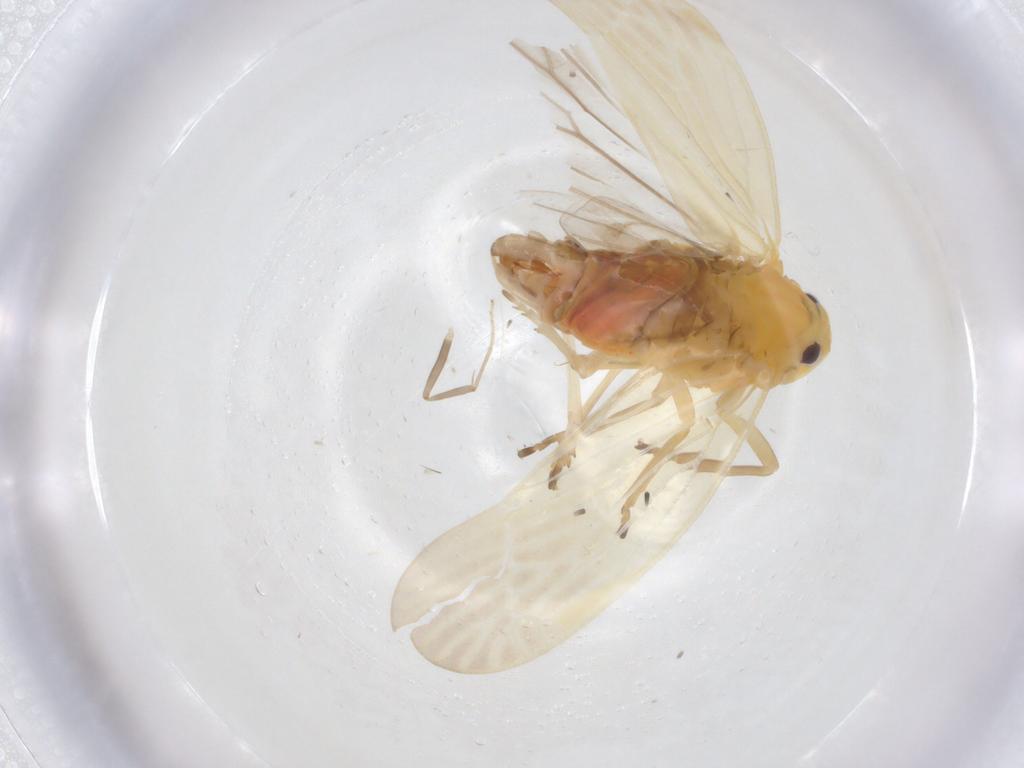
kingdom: Animalia
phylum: Arthropoda
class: Insecta
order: Hemiptera
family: Derbidae
